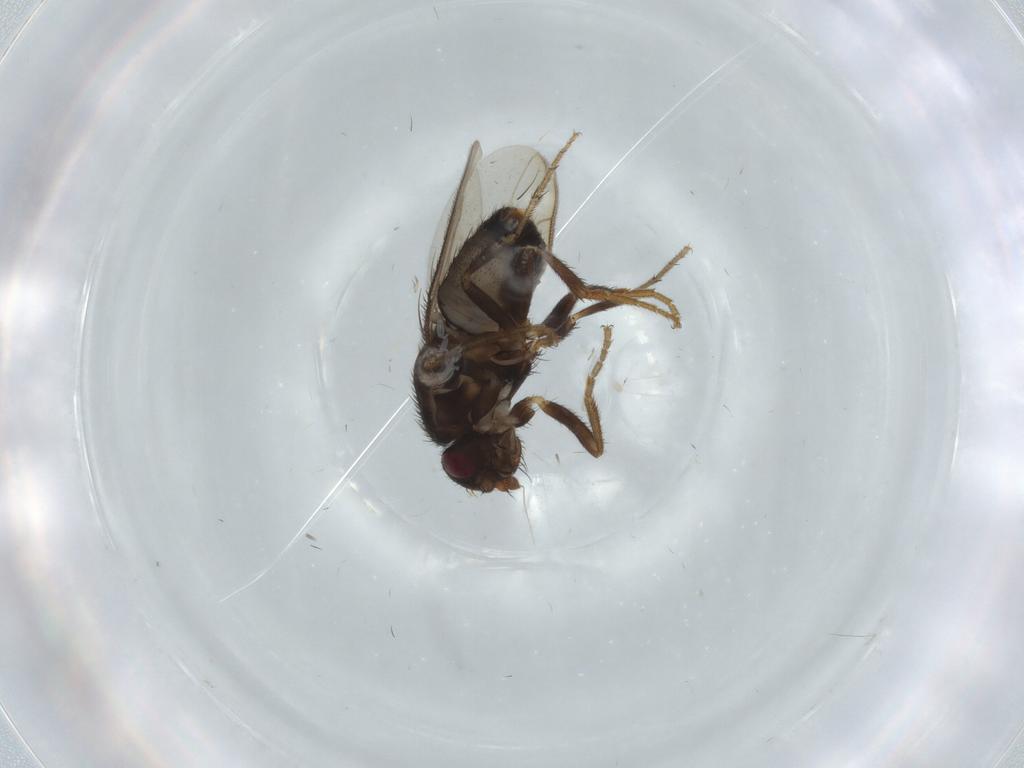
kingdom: Animalia
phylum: Arthropoda
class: Insecta
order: Diptera
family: Sphaeroceridae
